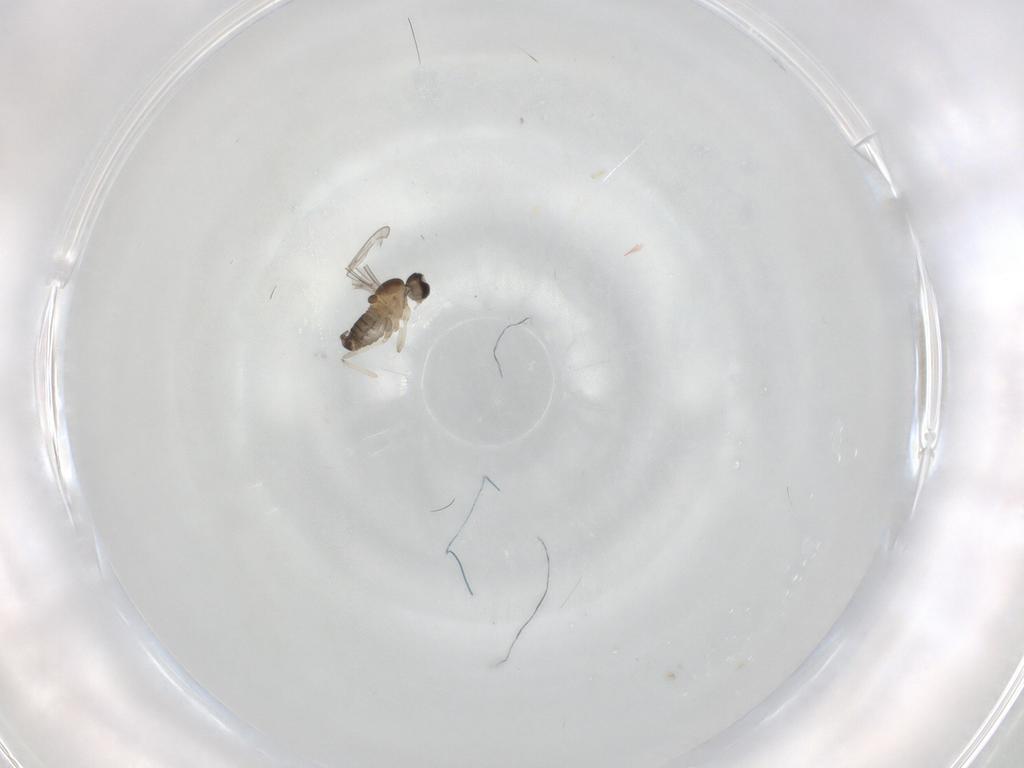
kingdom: Animalia
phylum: Arthropoda
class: Insecta
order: Diptera
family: Cecidomyiidae
